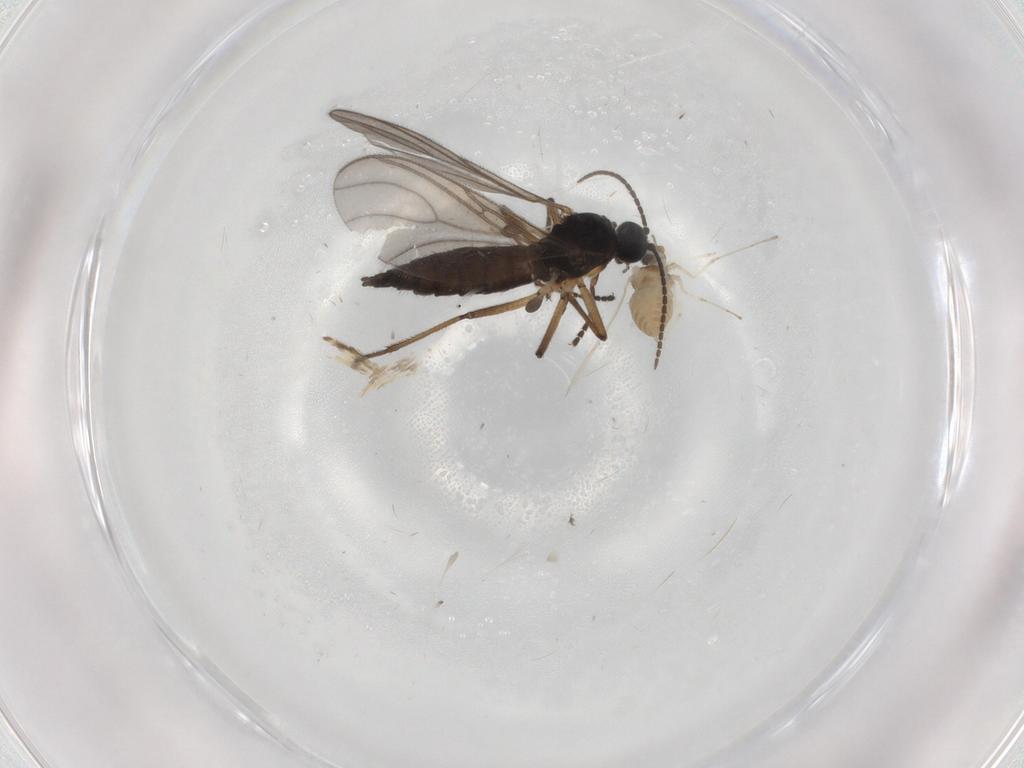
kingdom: Animalia
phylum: Arthropoda
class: Insecta
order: Diptera
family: Cecidomyiidae
